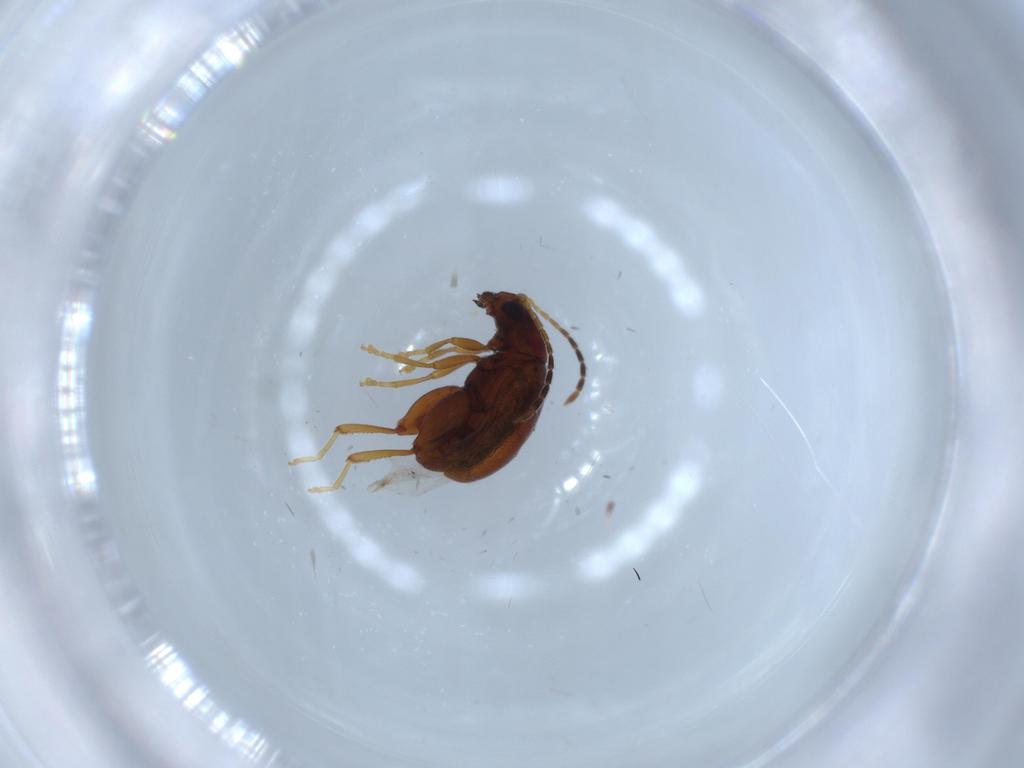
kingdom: Animalia
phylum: Arthropoda
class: Insecta
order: Coleoptera
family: Chrysomelidae
